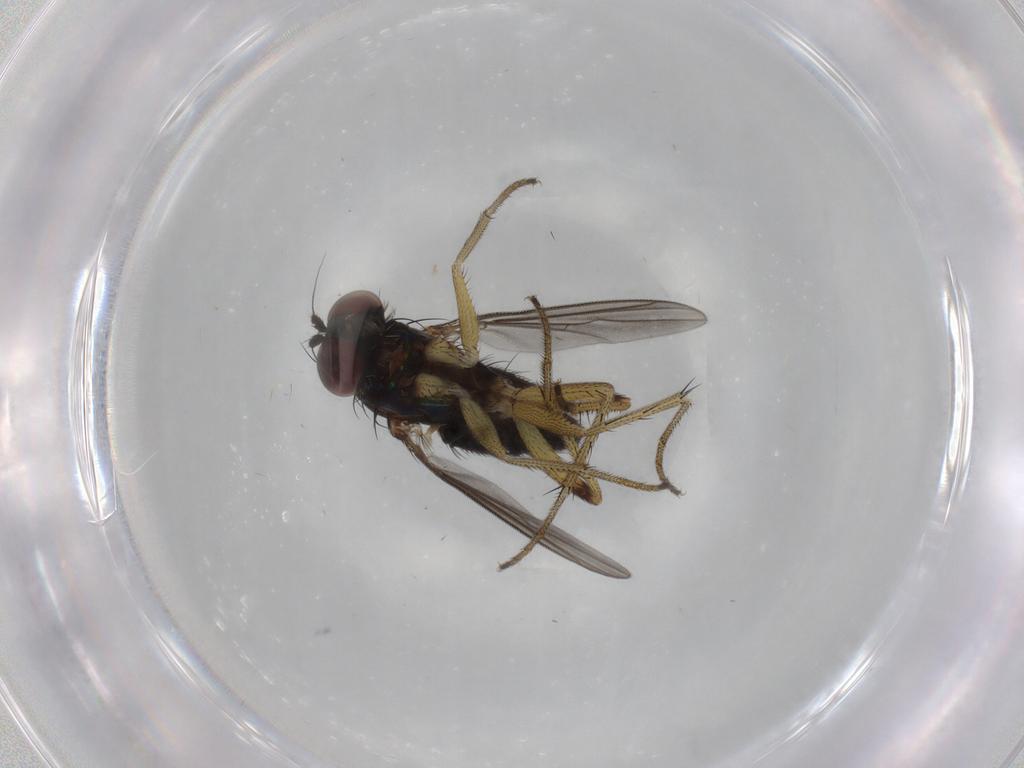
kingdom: Animalia
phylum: Arthropoda
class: Insecta
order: Diptera
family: Dolichopodidae
